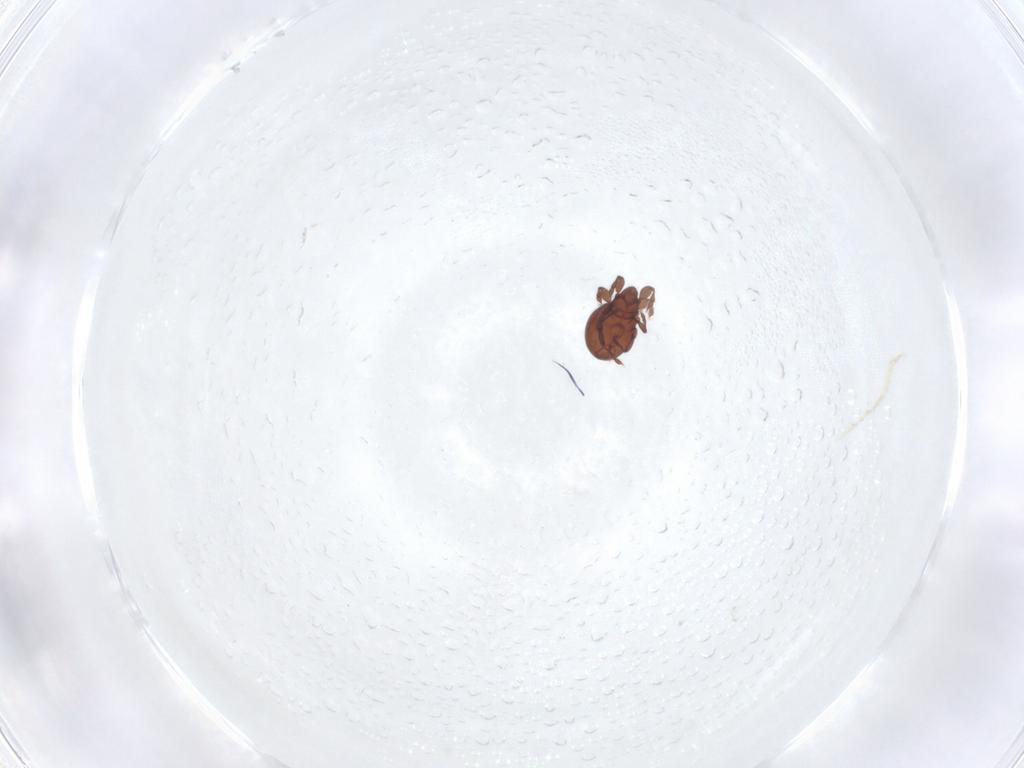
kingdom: Animalia
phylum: Arthropoda
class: Arachnida
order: Sarcoptiformes
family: Eremaeidae
